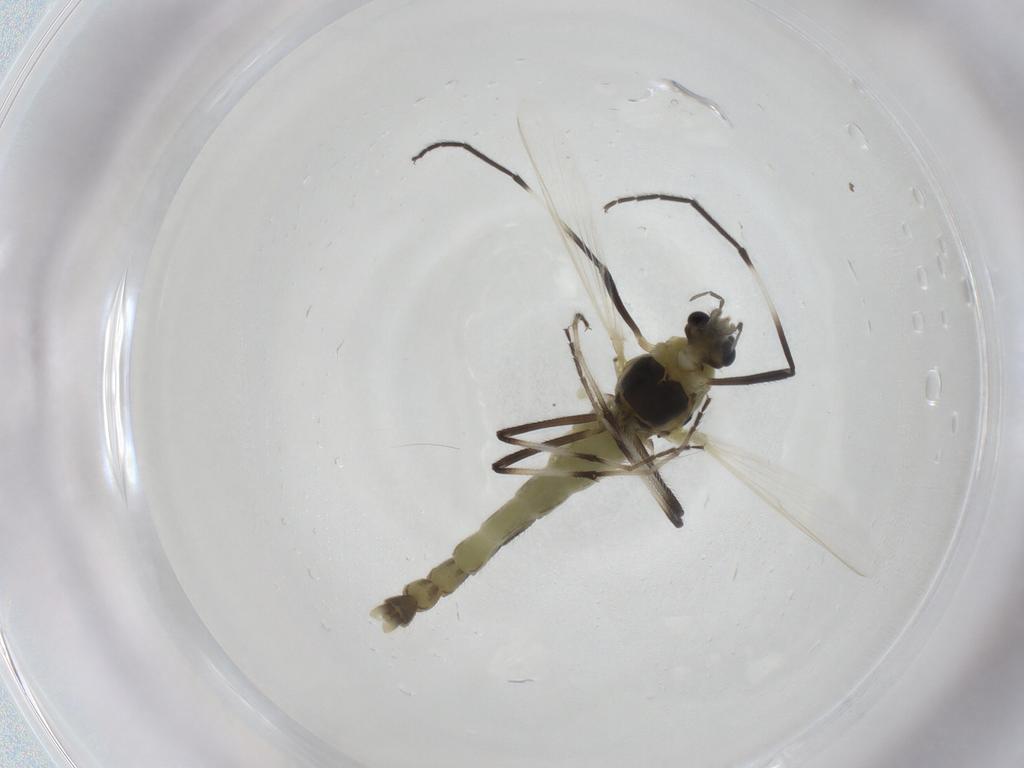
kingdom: Animalia
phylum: Arthropoda
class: Insecta
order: Diptera
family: Chironomidae
